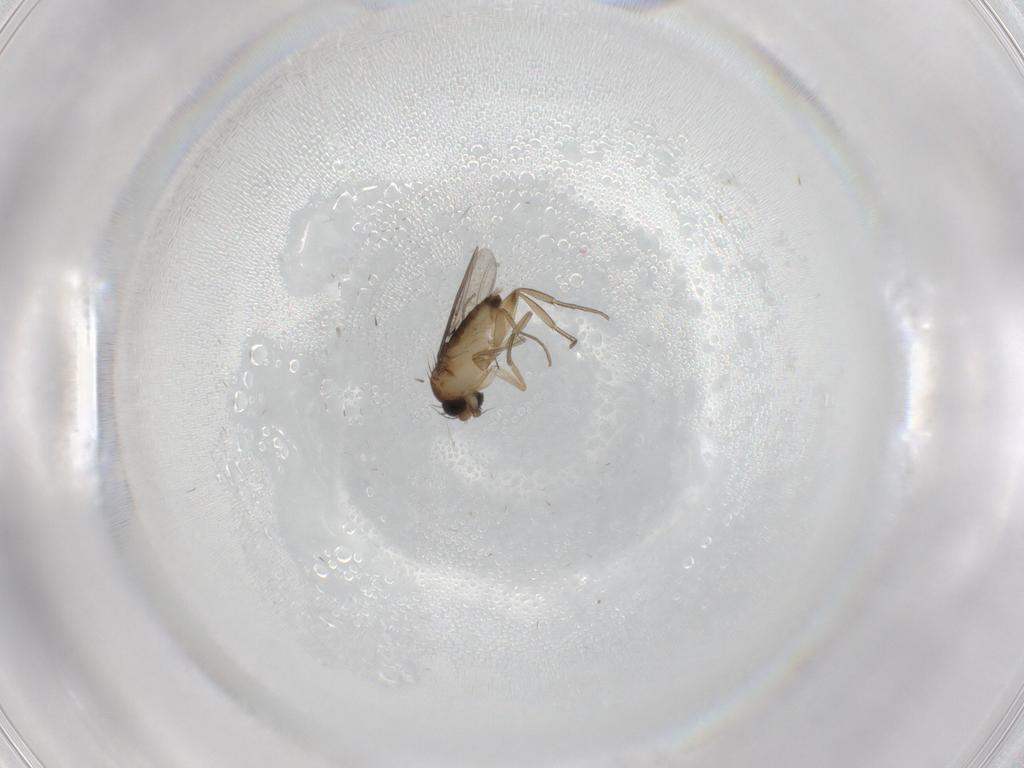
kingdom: Animalia
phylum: Arthropoda
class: Insecta
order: Diptera
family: Phoridae
